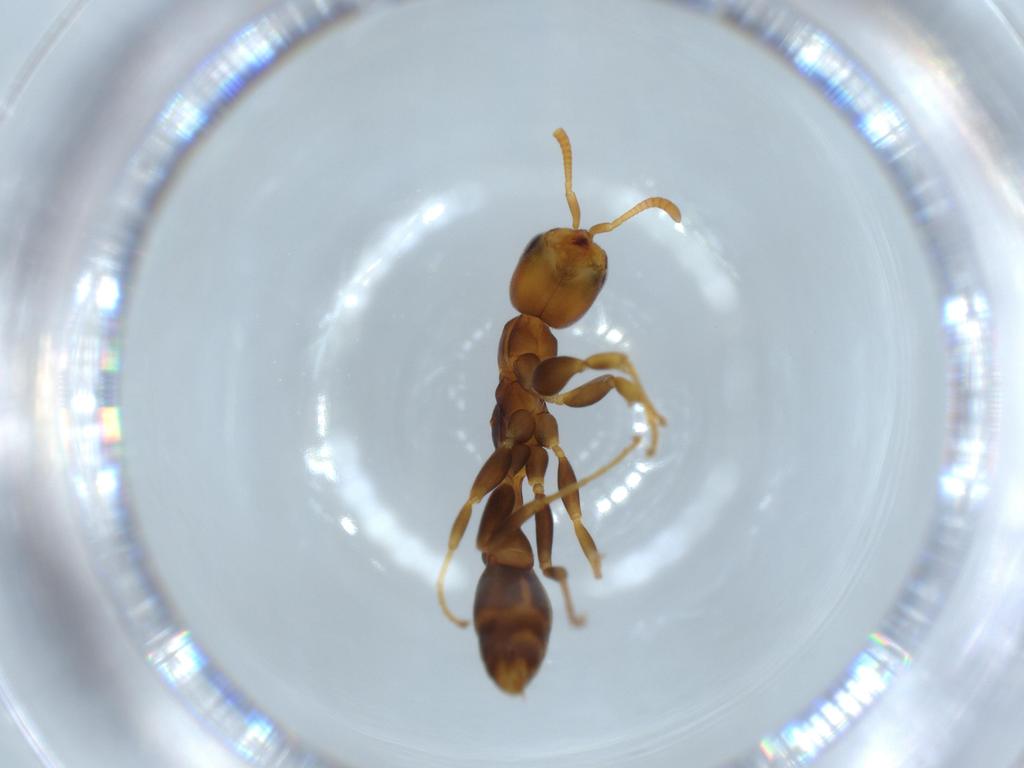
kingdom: Animalia
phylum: Arthropoda
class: Insecta
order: Hymenoptera
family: Formicidae
